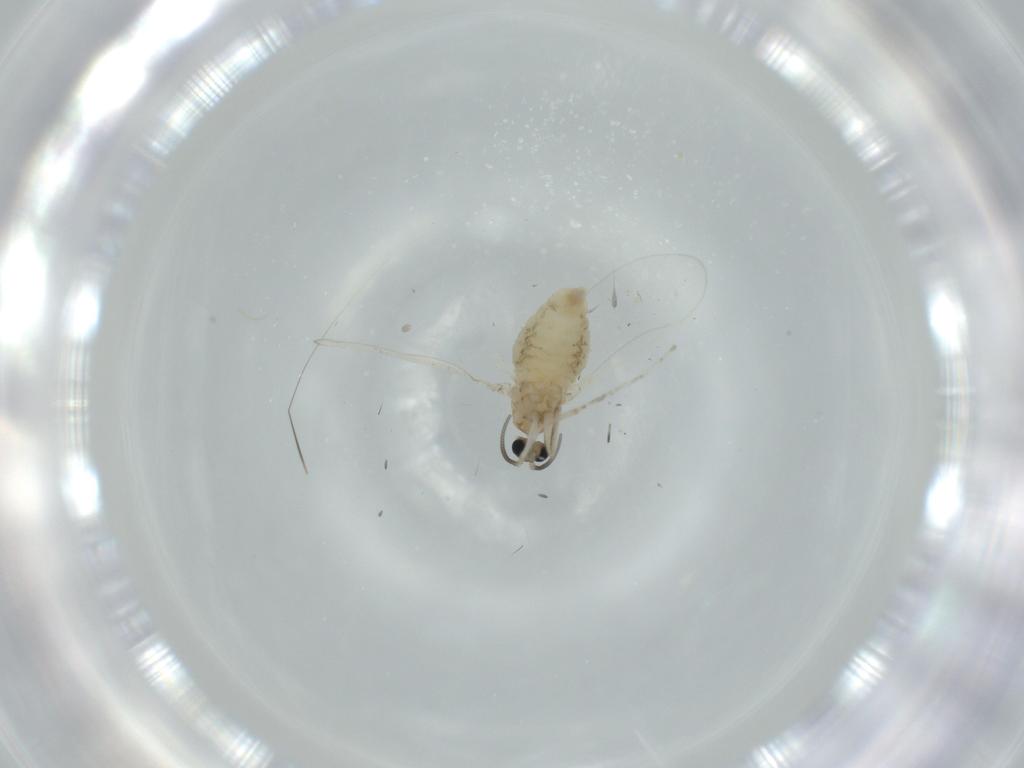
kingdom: Animalia
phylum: Arthropoda
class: Insecta
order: Diptera
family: Cecidomyiidae
